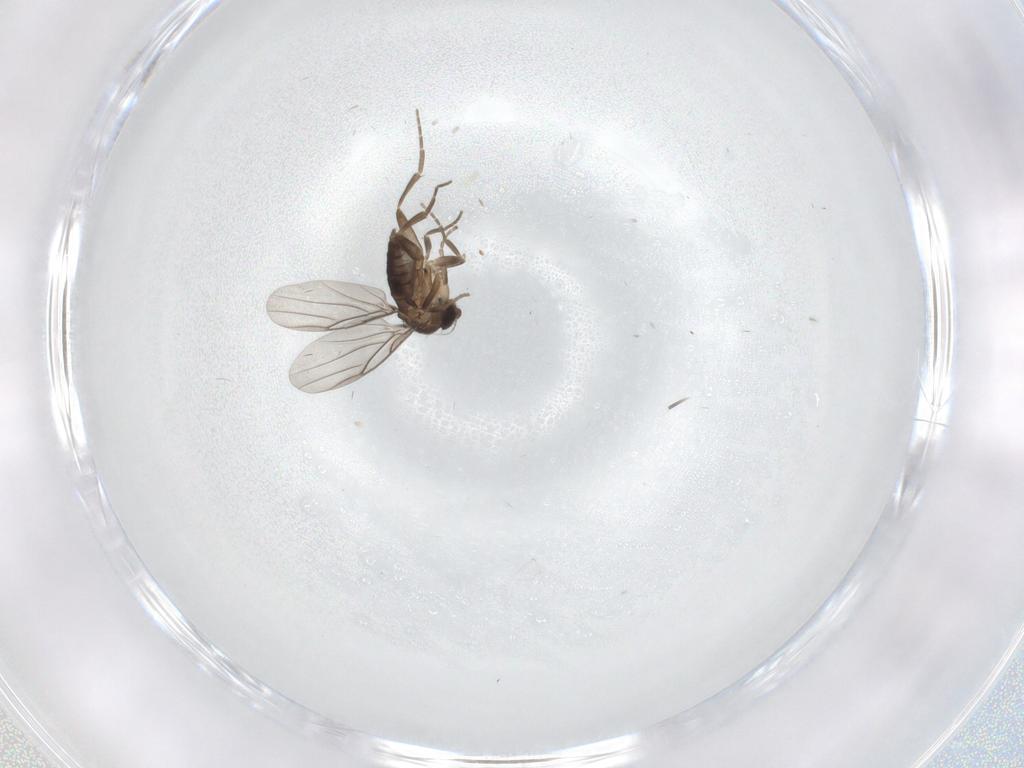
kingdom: Animalia
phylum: Arthropoda
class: Insecta
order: Diptera
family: Phoridae
